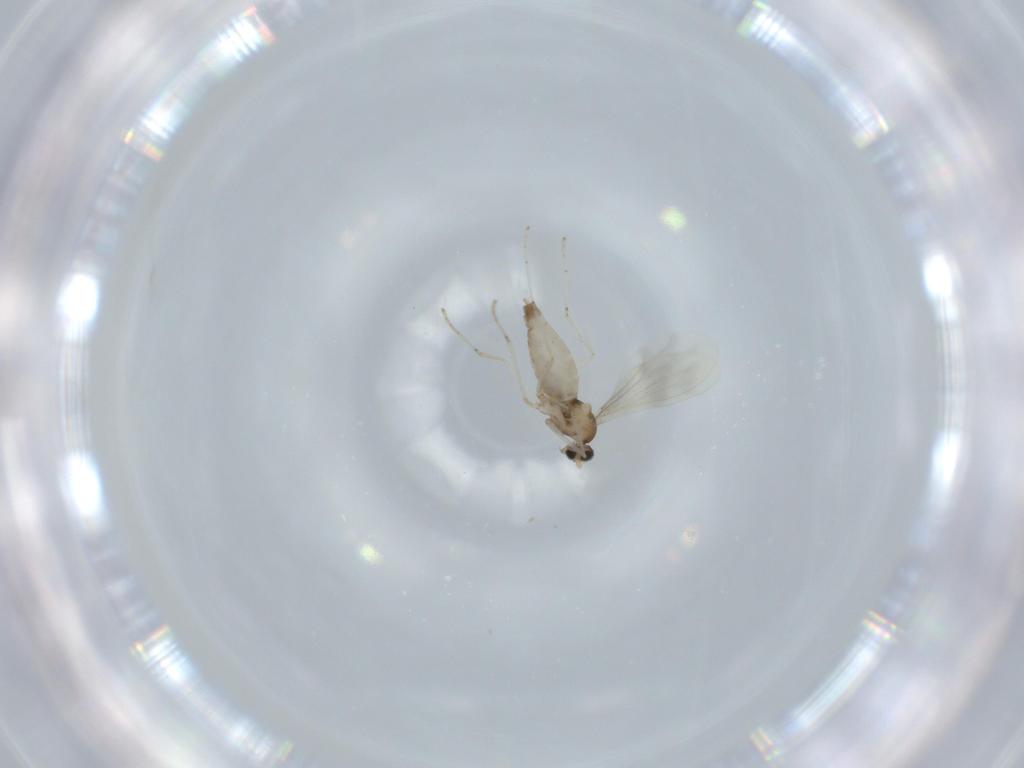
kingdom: Animalia
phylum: Arthropoda
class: Insecta
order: Diptera
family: Cecidomyiidae
